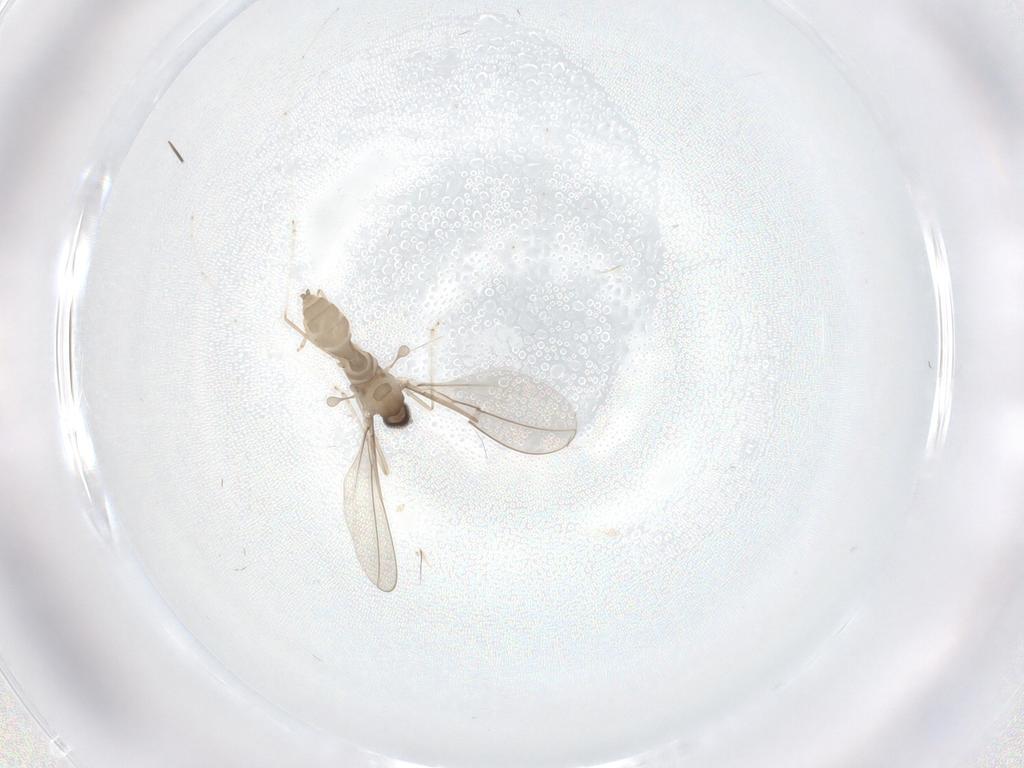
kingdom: Animalia
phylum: Arthropoda
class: Insecta
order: Diptera
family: Cecidomyiidae
